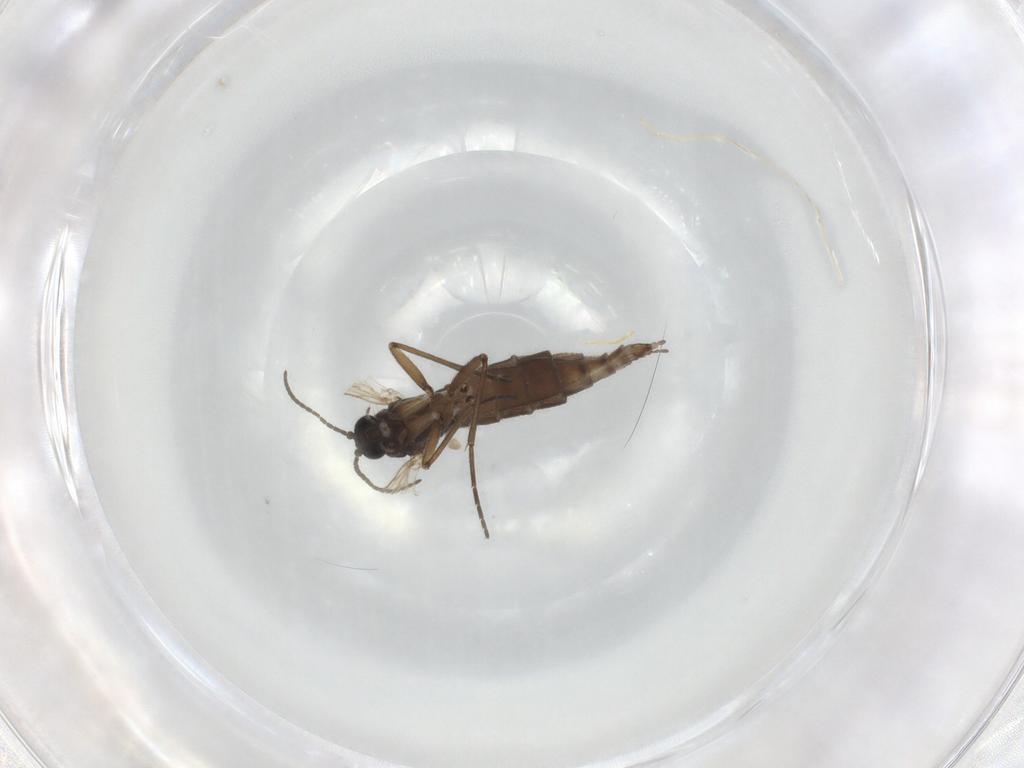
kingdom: Animalia
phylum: Arthropoda
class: Insecta
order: Diptera
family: Sciaridae
